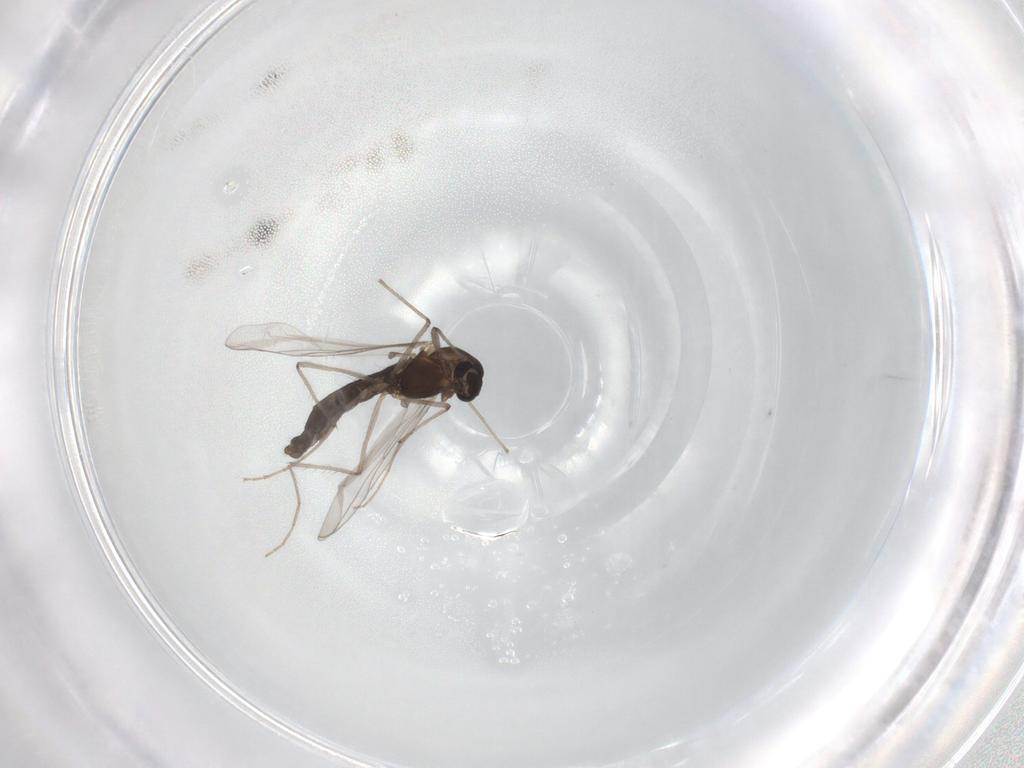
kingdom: Animalia
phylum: Arthropoda
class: Insecta
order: Diptera
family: Chironomidae
